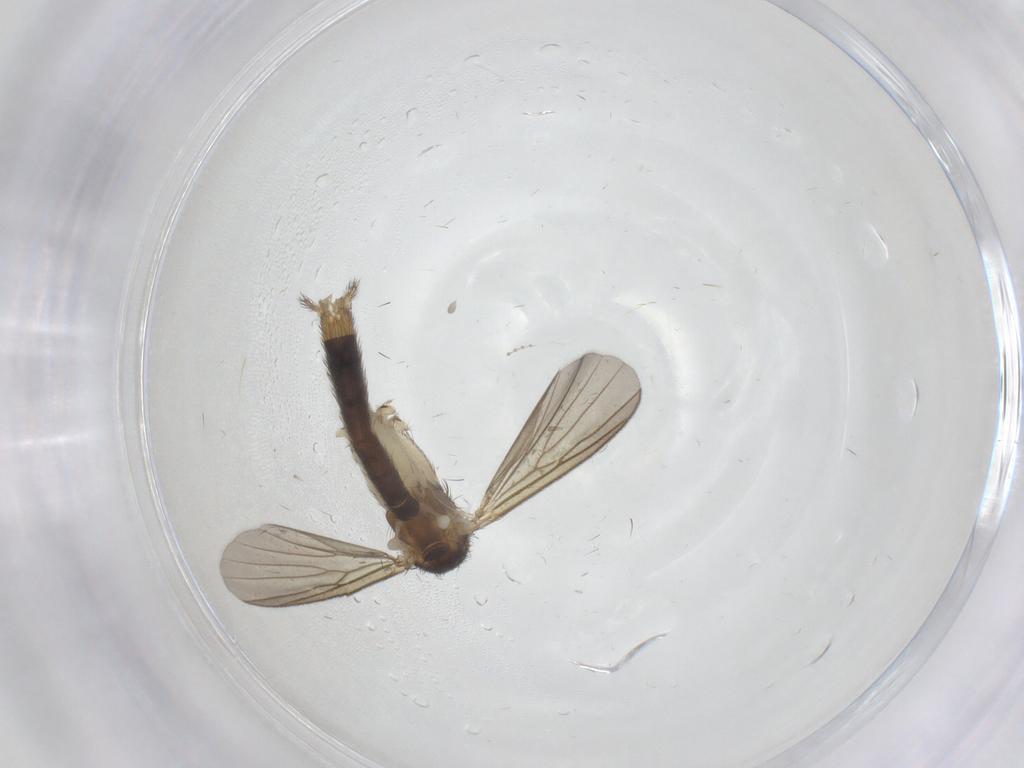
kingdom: Animalia
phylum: Arthropoda
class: Insecta
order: Diptera
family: Mycetophilidae
